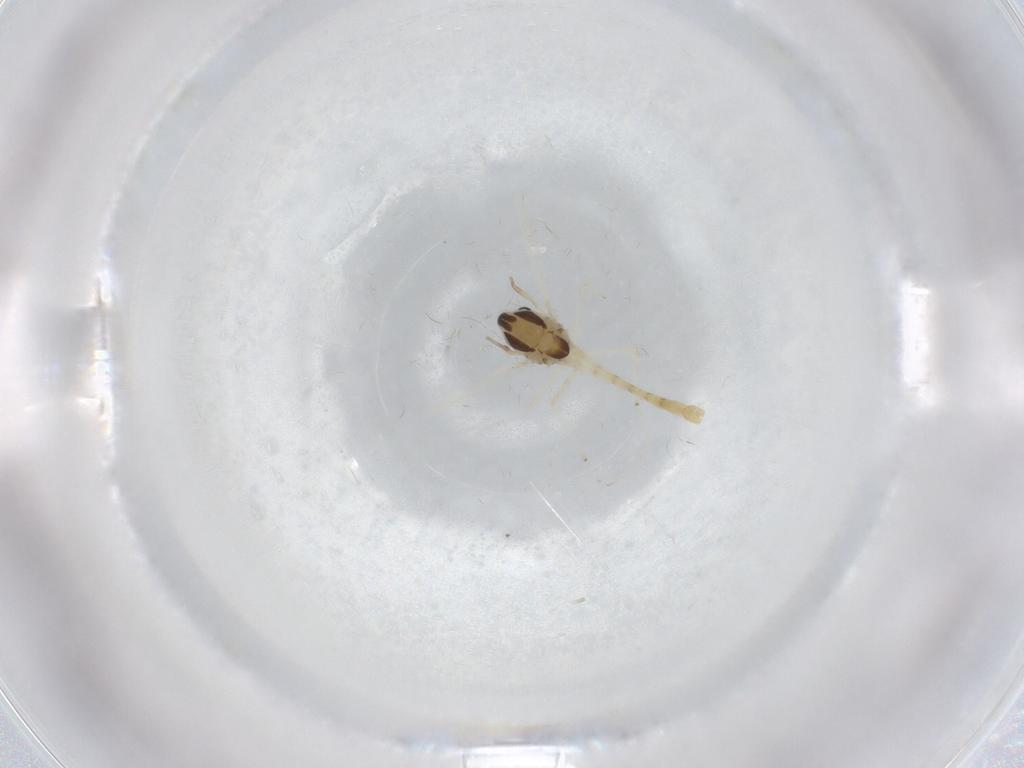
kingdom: Animalia
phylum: Arthropoda
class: Insecta
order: Diptera
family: Chironomidae
